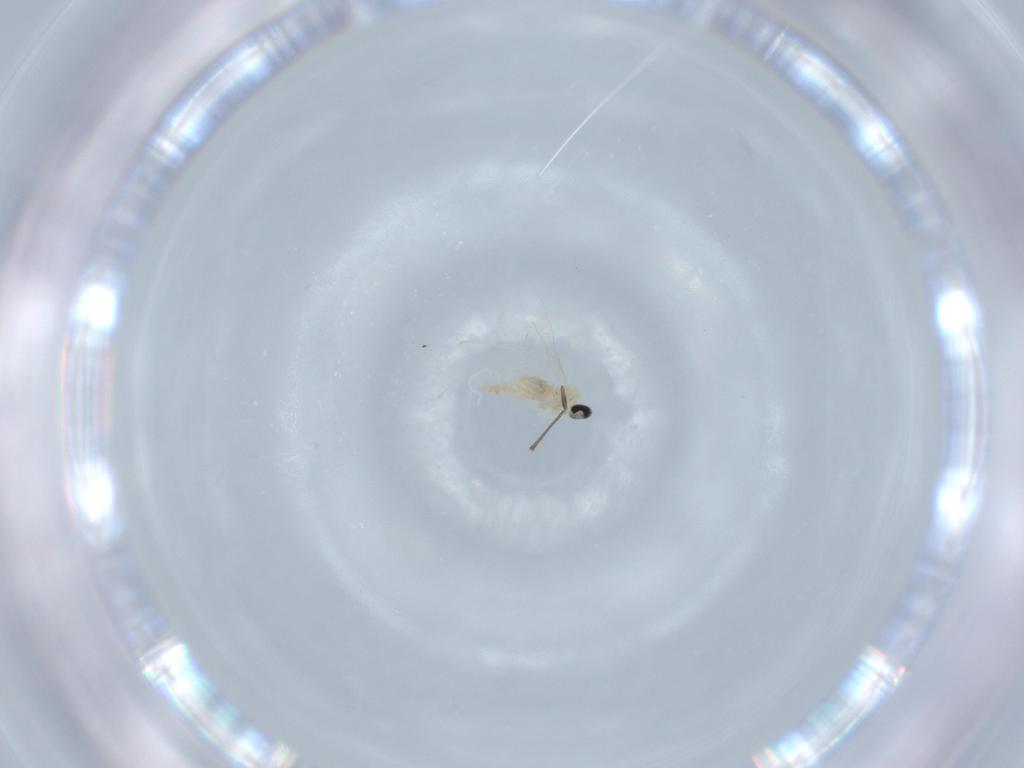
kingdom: Animalia
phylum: Arthropoda
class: Insecta
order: Diptera
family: Cecidomyiidae
